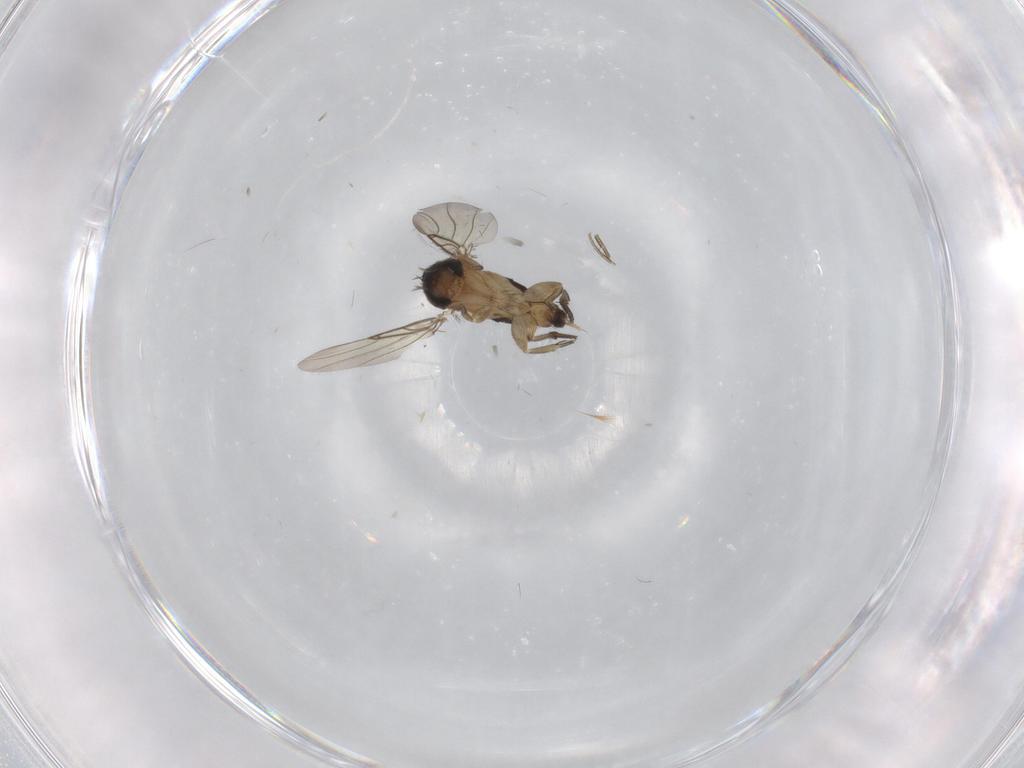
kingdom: Animalia
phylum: Arthropoda
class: Insecta
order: Diptera
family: Phoridae
